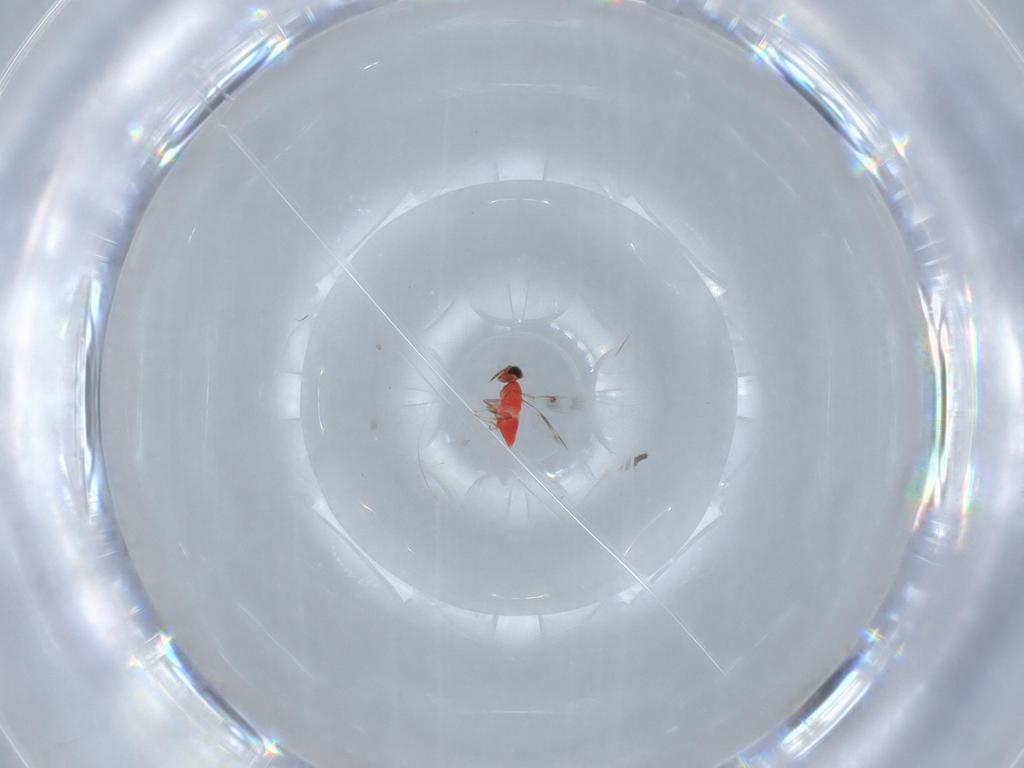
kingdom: Animalia
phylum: Arthropoda
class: Insecta
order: Hymenoptera
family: Trichogrammatidae
